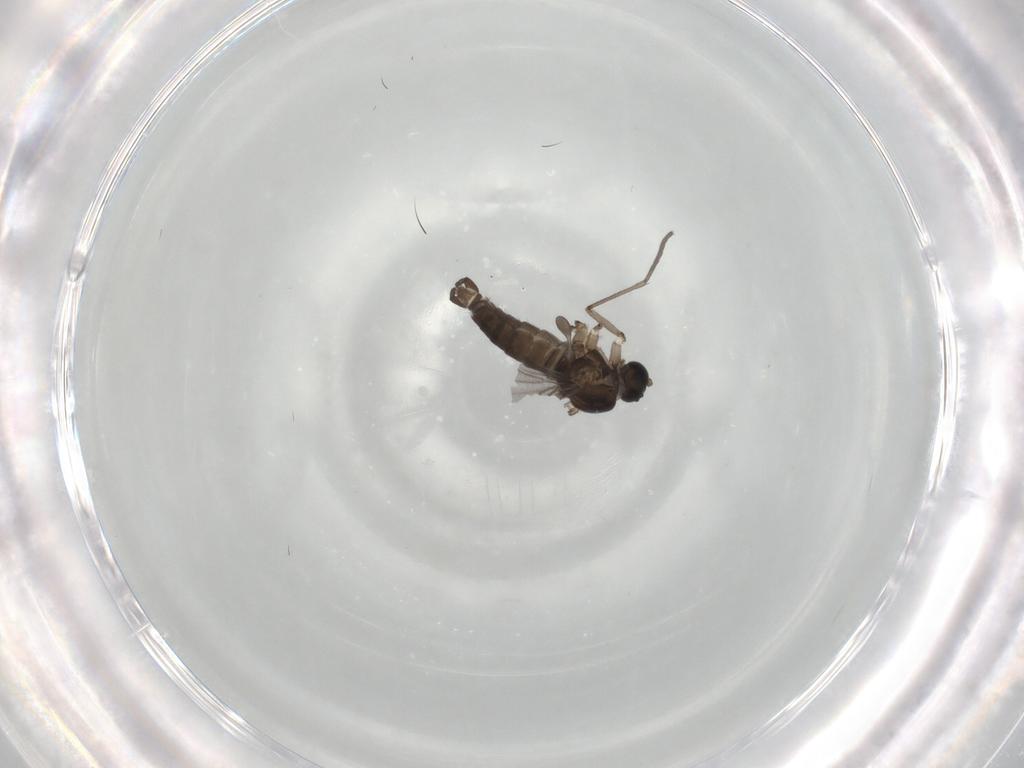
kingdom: Animalia
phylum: Arthropoda
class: Insecta
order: Diptera
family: Sciaridae
